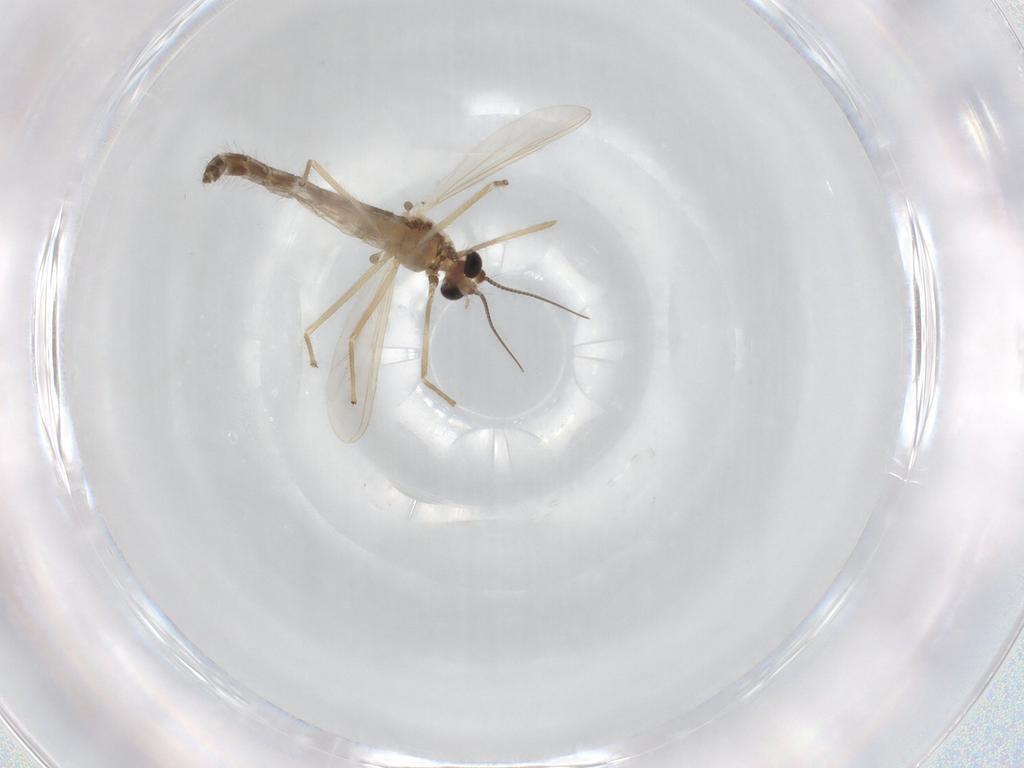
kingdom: Animalia
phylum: Arthropoda
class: Insecta
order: Diptera
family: Chironomidae
